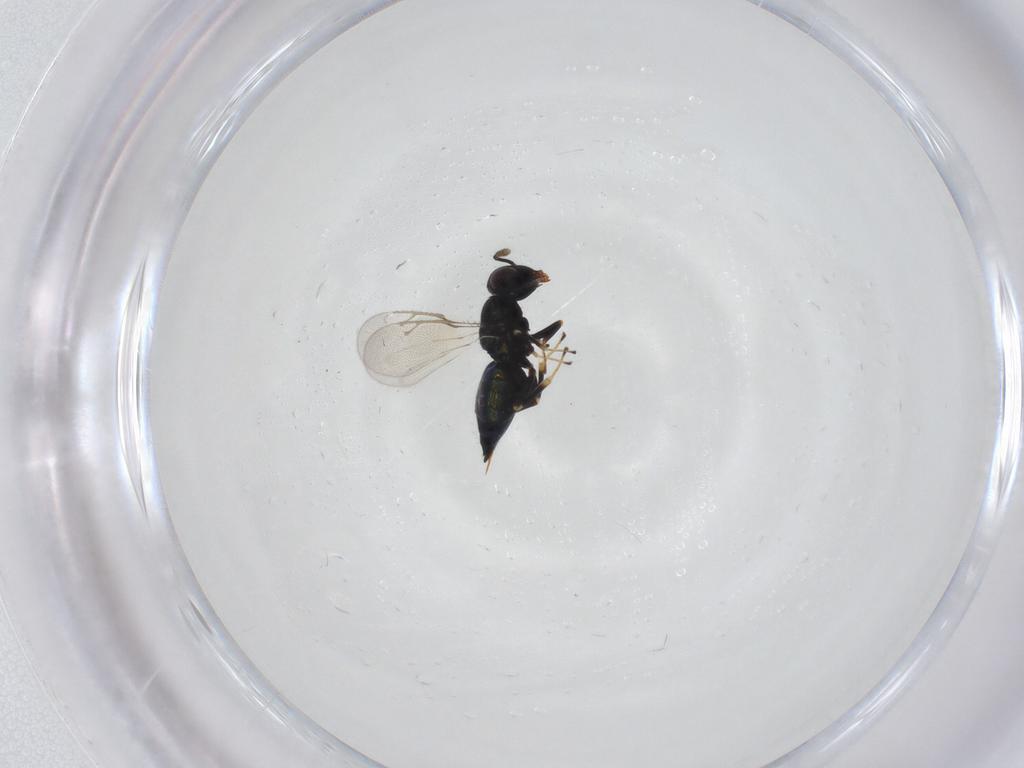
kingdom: Animalia
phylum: Arthropoda
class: Insecta
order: Hymenoptera
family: Pteromalidae
